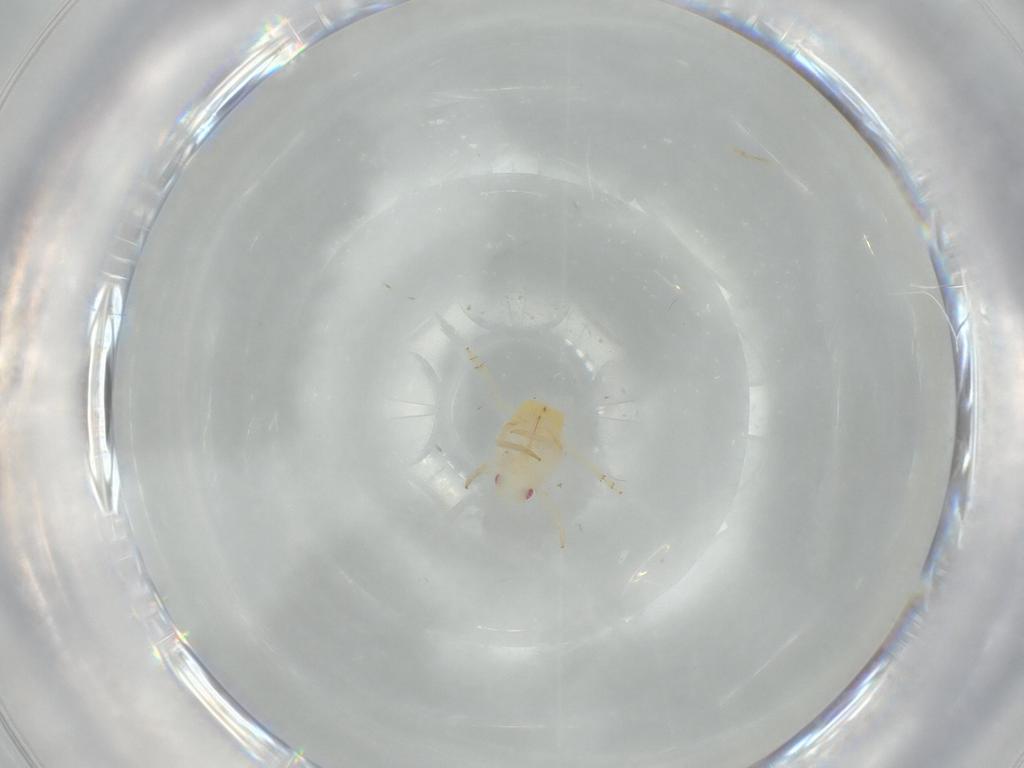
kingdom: Animalia
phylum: Arthropoda
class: Insecta
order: Hemiptera
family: Flatidae
